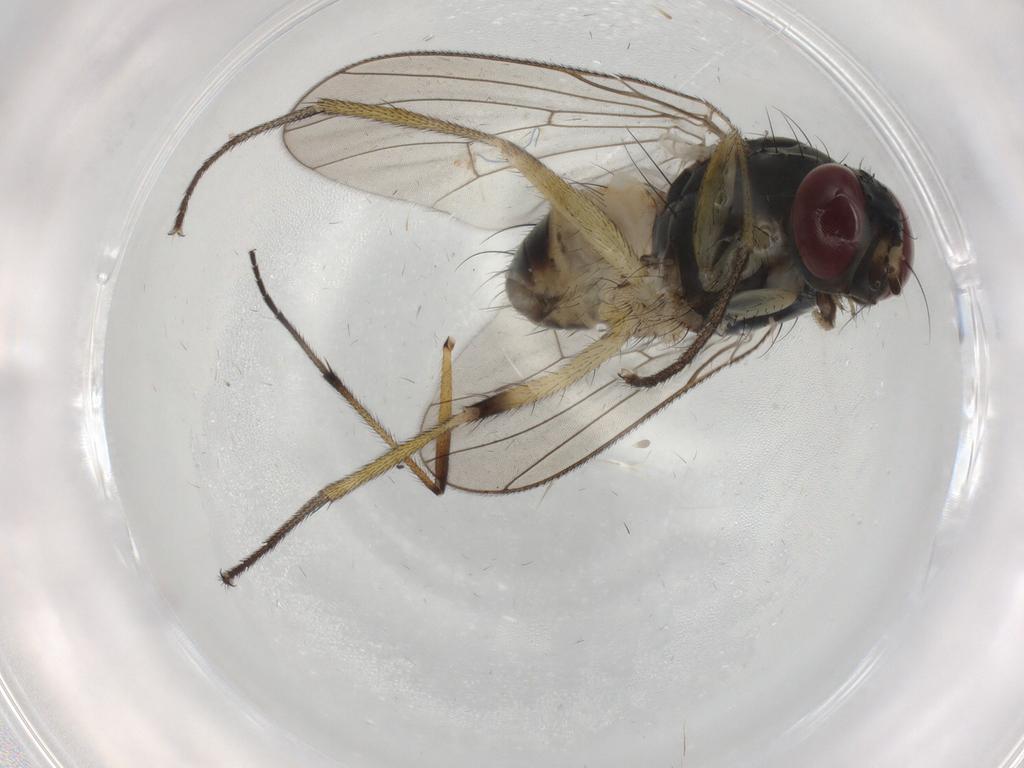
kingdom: Animalia
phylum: Arthropoda
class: Insecta
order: Diptera
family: Muscidae
